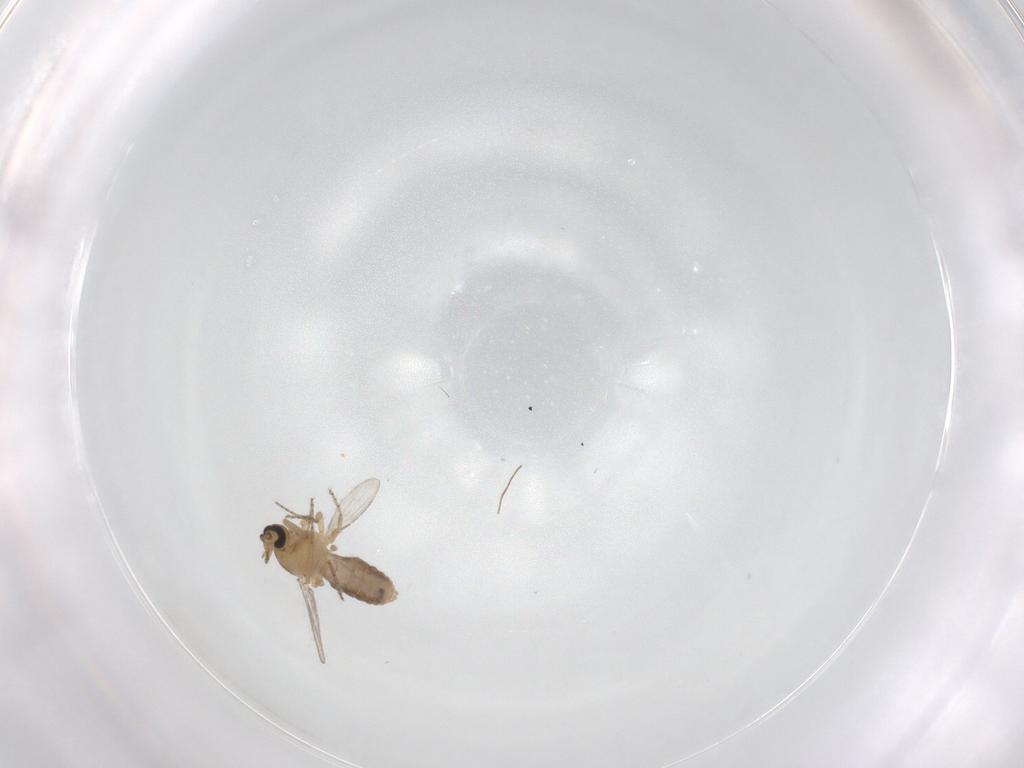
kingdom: Animalia
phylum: Arthropoda
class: Insecta
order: Diptera
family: Ceratopogonidae
